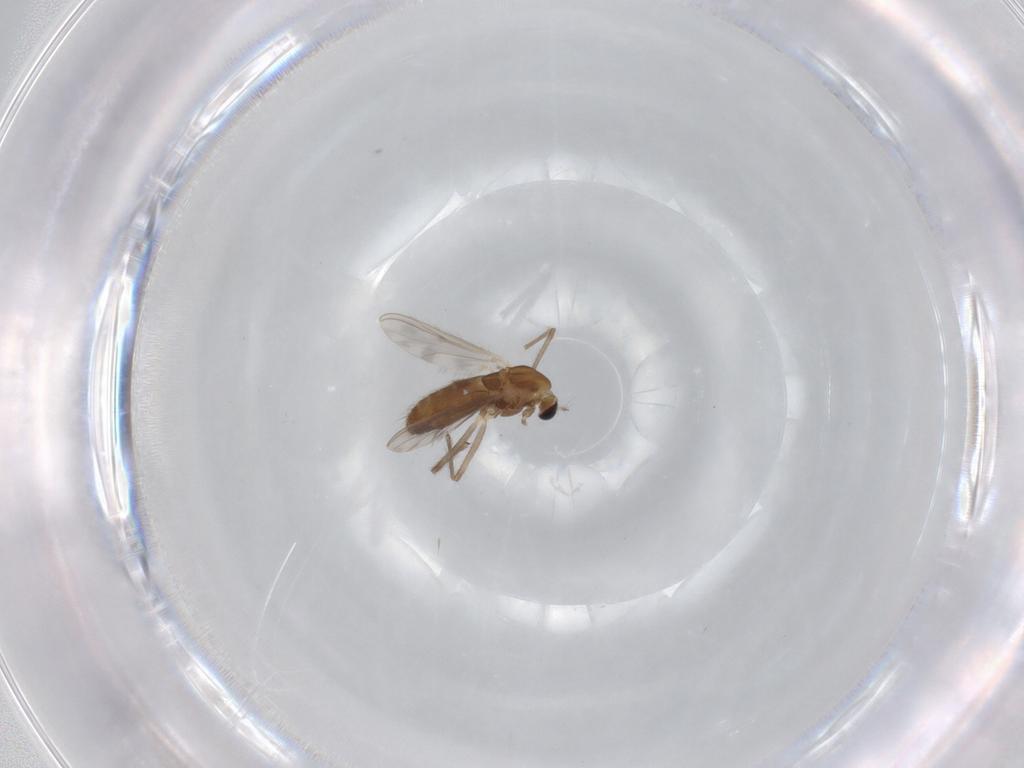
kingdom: Animalia
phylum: Arthropoda
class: Insecta
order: Diptera
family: Chironomidae
